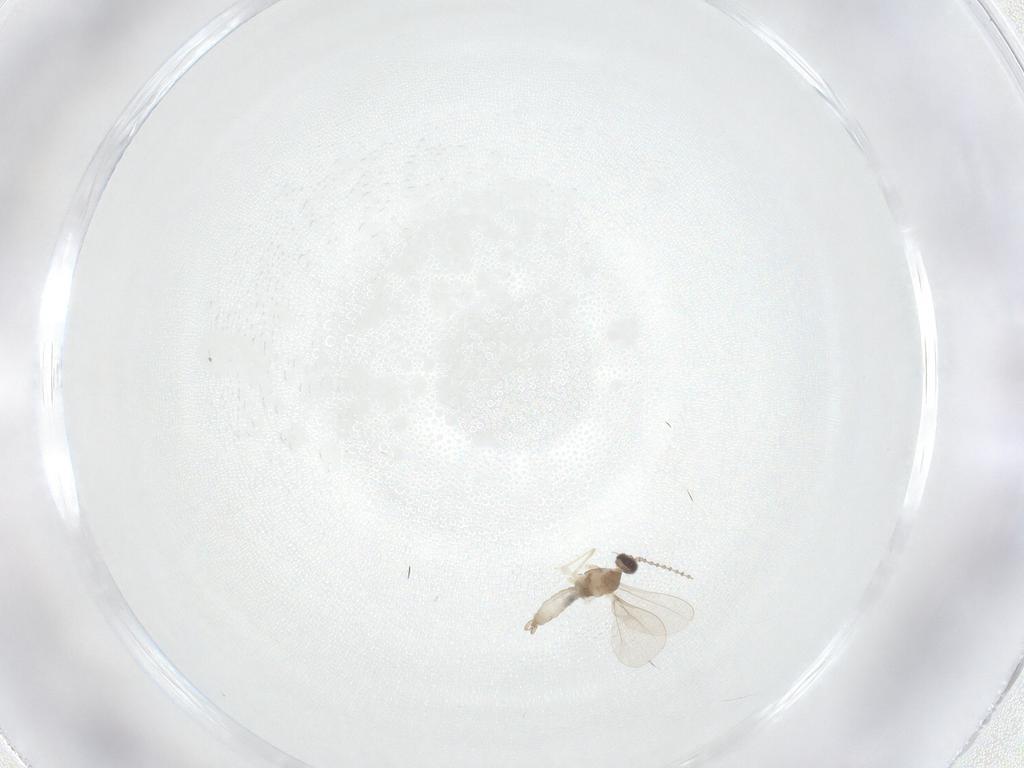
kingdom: Animalia
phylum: Arthropoda
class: Insecta
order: Diptera
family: Cecidomyiidae
